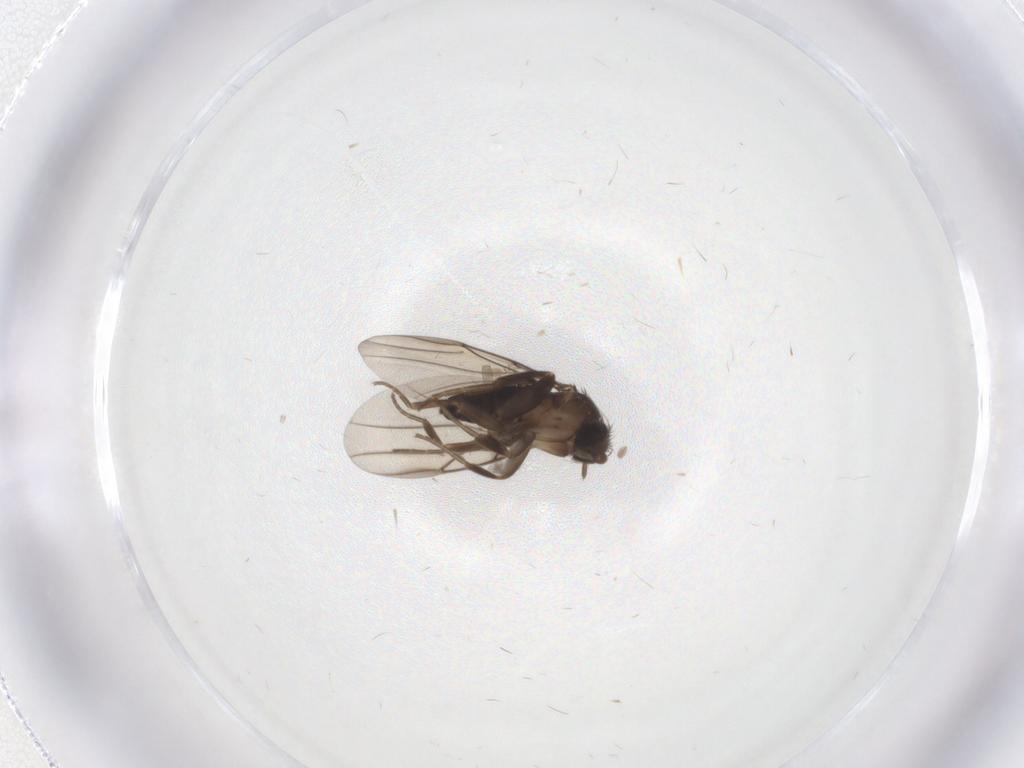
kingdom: Animalia
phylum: Arthropoda
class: Insecta
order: Diptera
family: Phoridae
